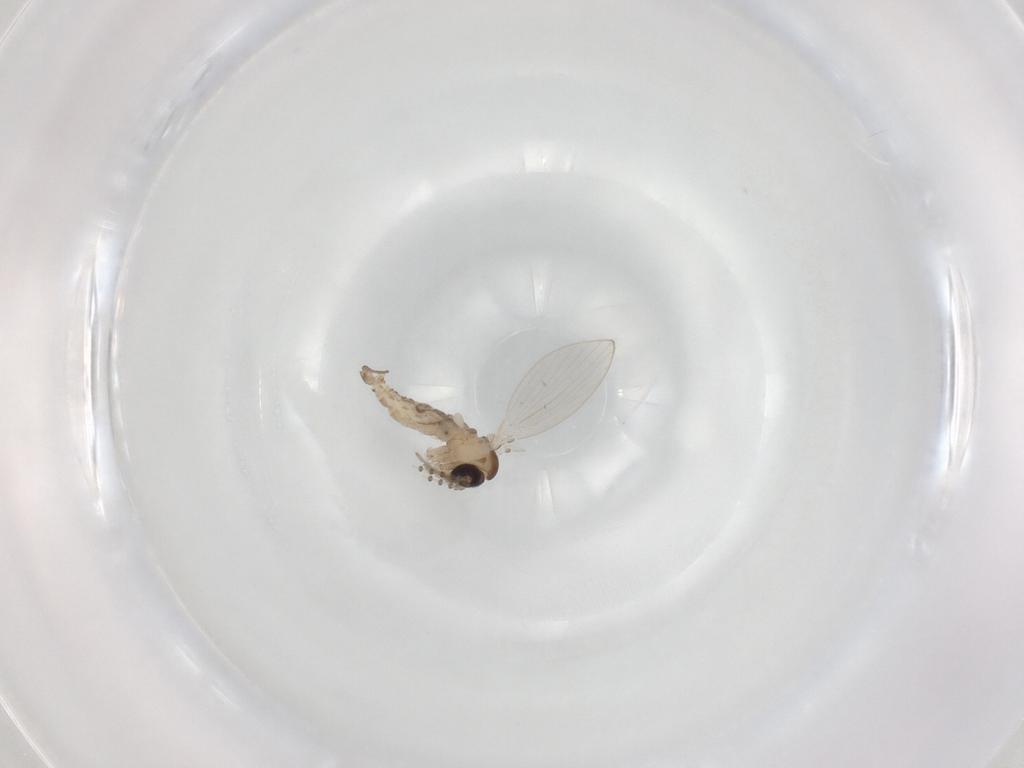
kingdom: Animalia
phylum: Arthropoda
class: Insecta
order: Diptera
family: Psychodidae
